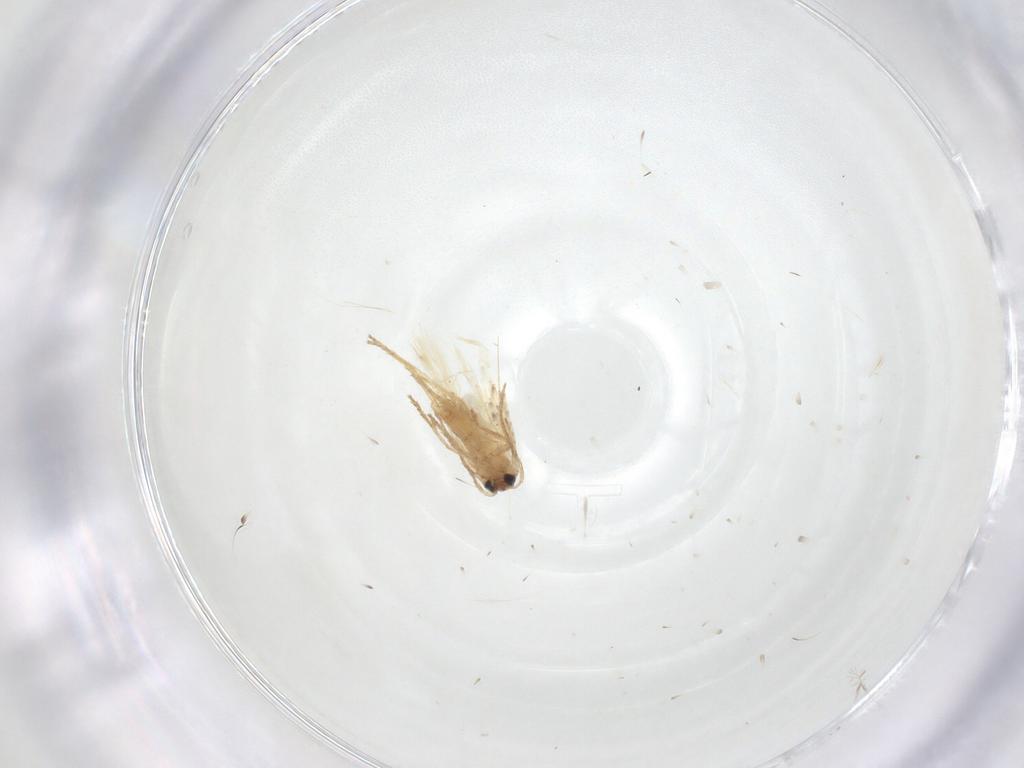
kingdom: Animalia
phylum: Arthropoda
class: Insecta
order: Lepidoptera
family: Nepticulidae
